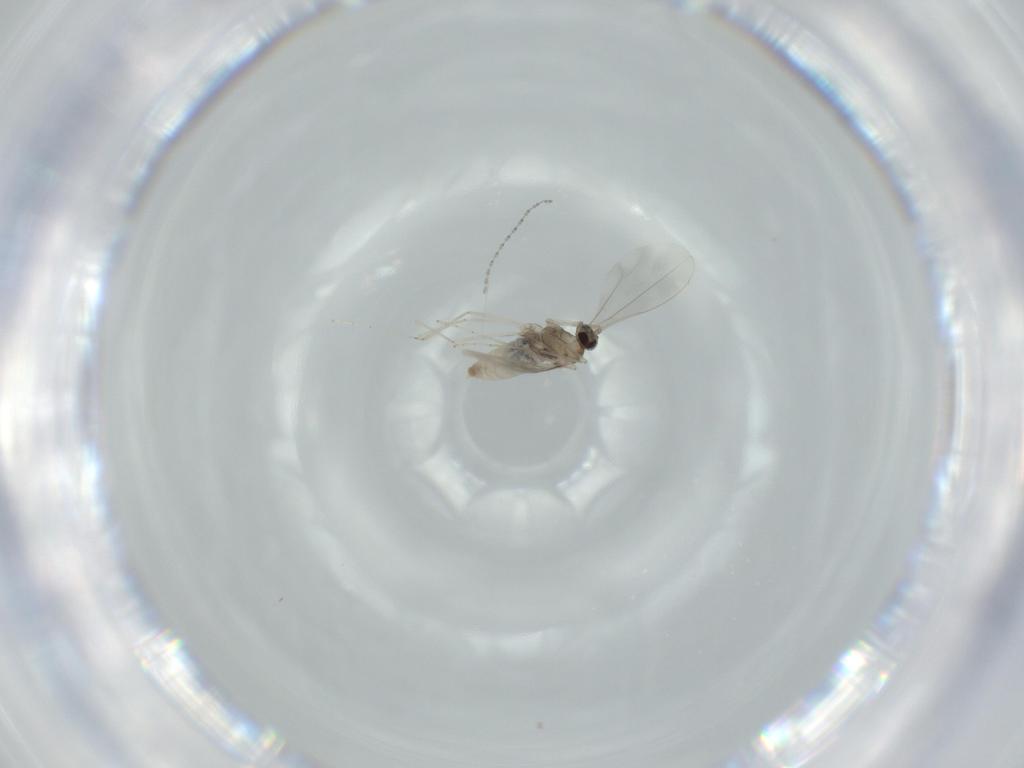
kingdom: Animalia
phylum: Arthropoda
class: Insecta
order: Diptera
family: Cecidomyiidae
